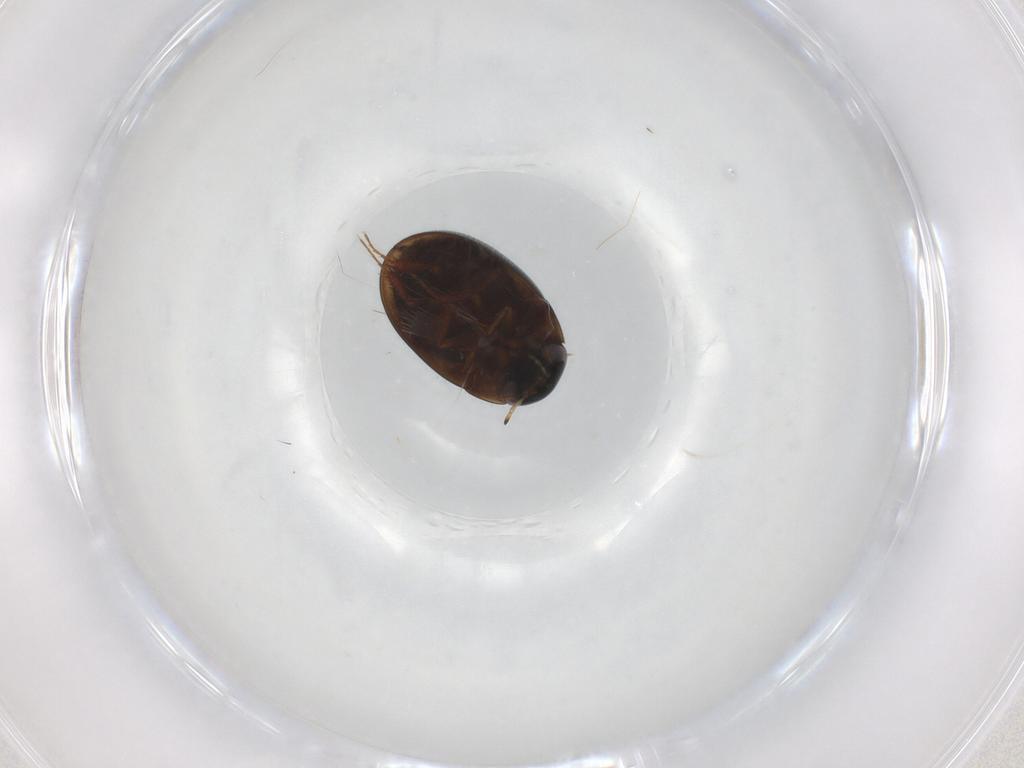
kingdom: Animalia
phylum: Arthropoda
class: Insecta
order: Coleoptera
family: Hydrophilidae
